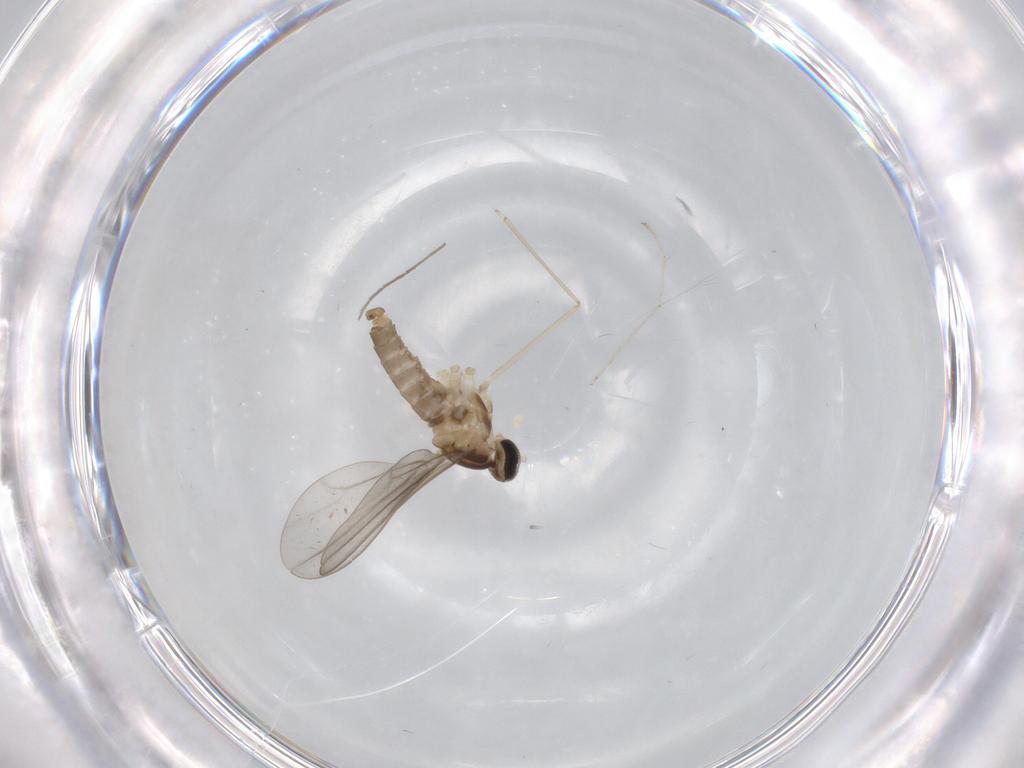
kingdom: Animalia
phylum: Arthropoda
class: Insecta
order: Diptera
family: Cecidomyiidae
